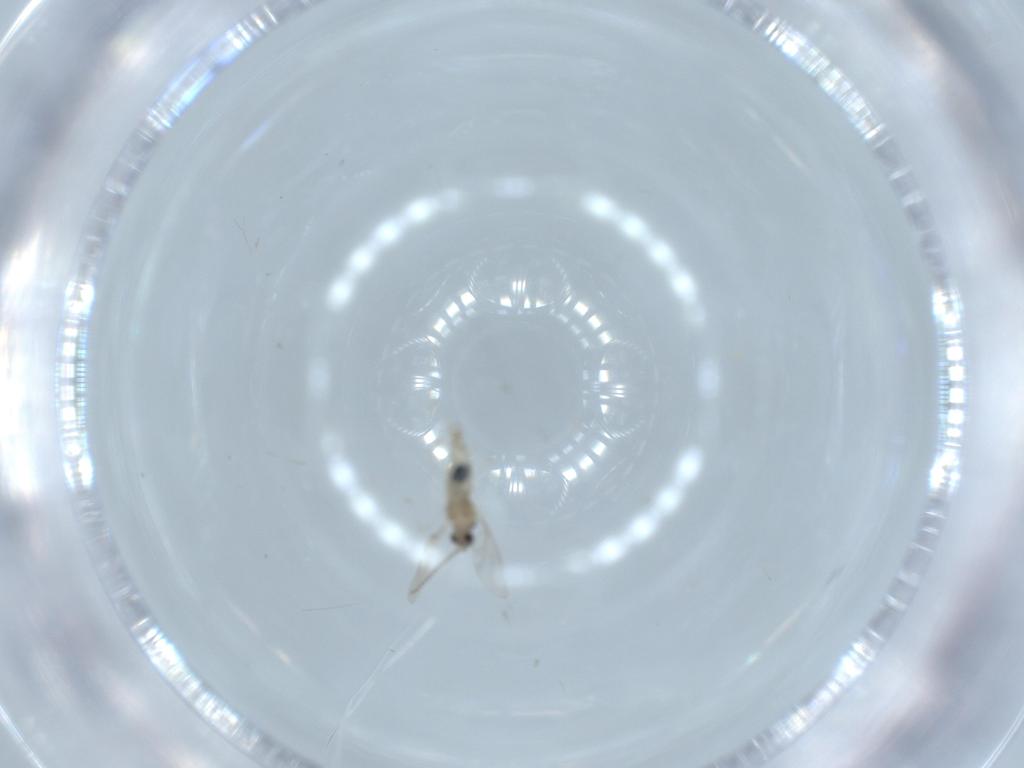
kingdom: Animalia
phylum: Arthropoda
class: Insecta
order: Diptera
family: Cecidomyiidae
